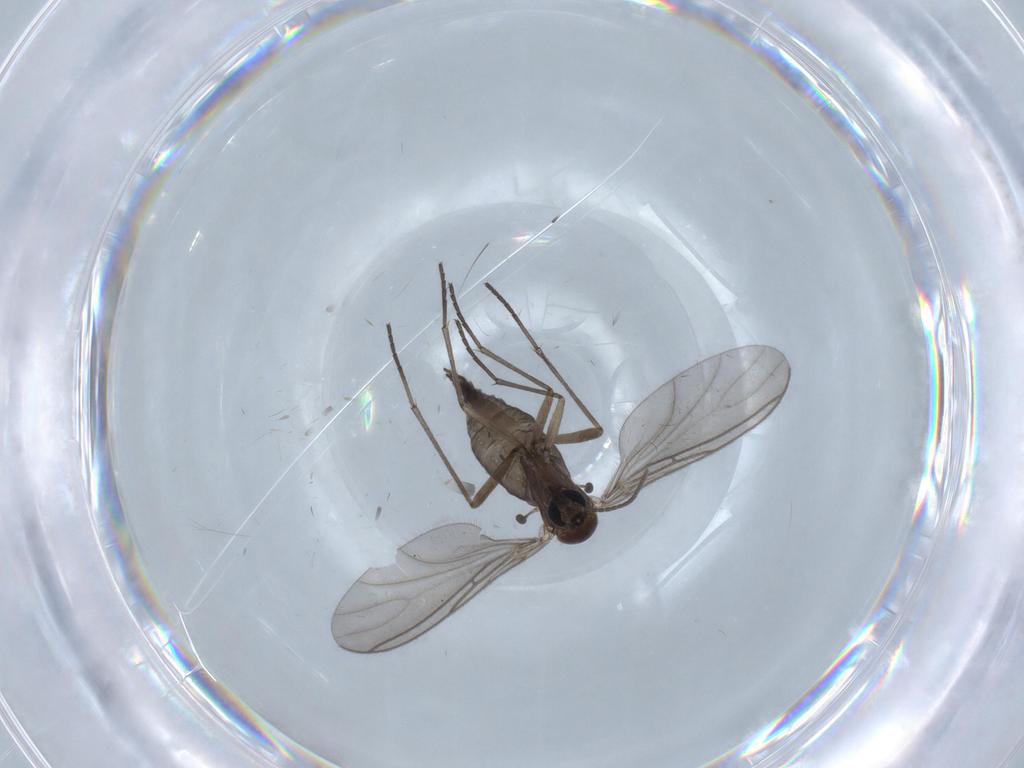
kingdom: Animalia
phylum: Arthropoda
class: Insecta
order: Diptera
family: Sciaridae
